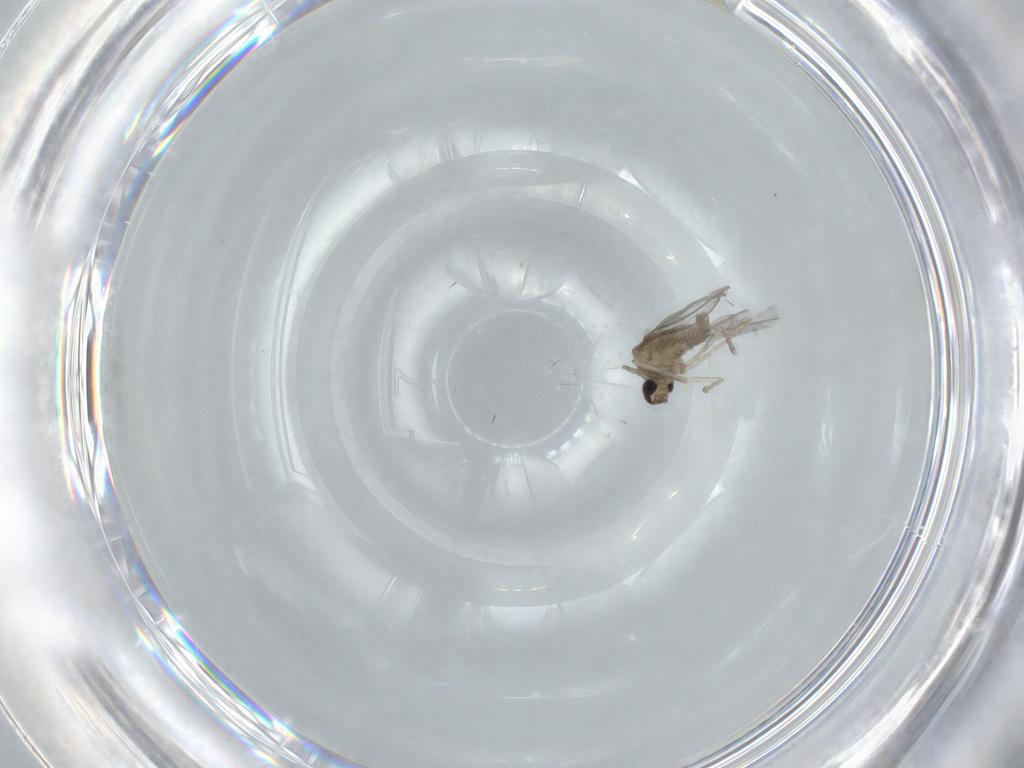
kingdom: Animalia
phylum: Arthropoda
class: Insecta
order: Diptera
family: Cecidomyiidae
